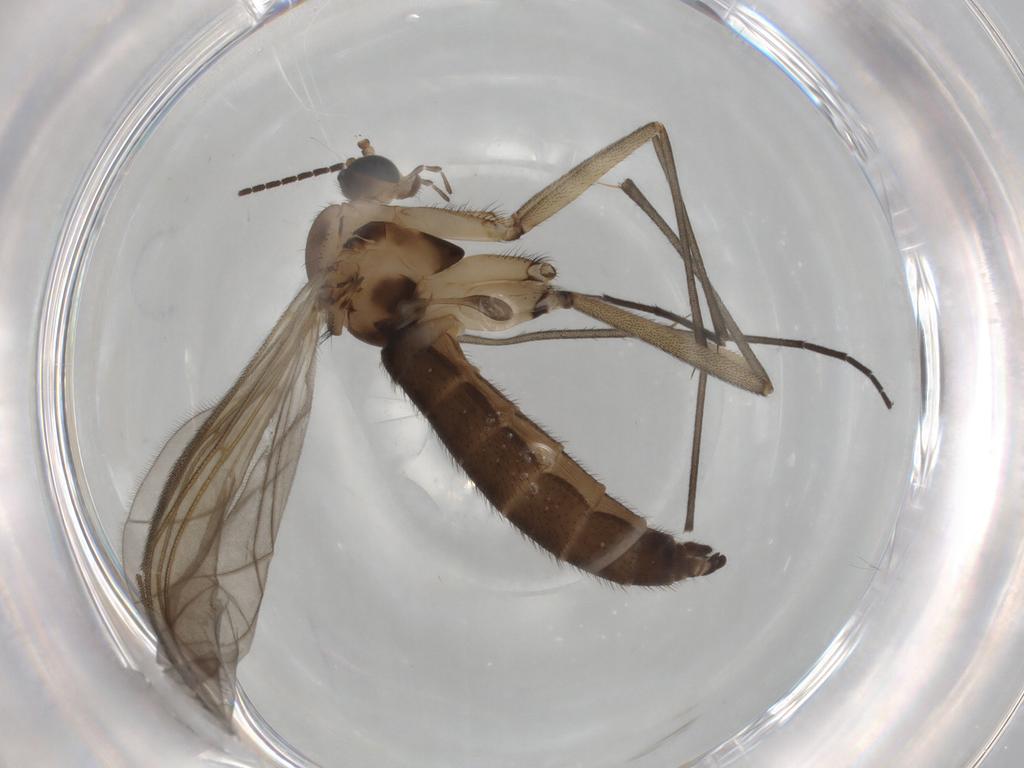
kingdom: Animalia
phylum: Arthropoda
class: Insecta
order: Diptera
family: Sciaridae
